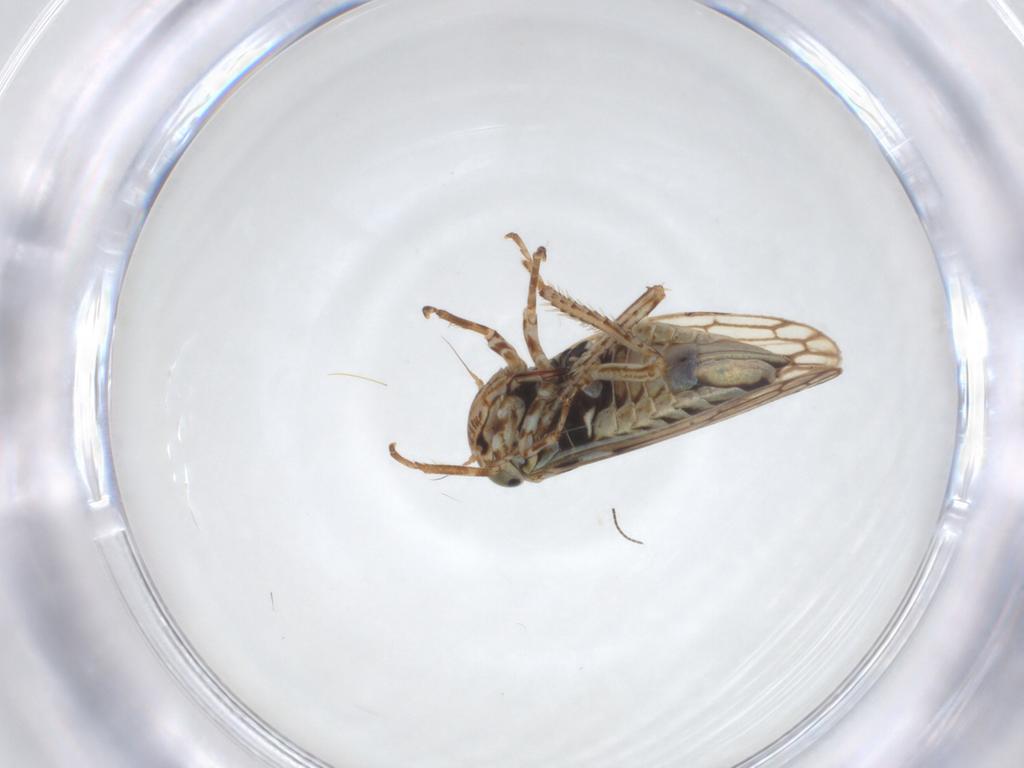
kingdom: Animalia
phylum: Arthropoda
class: Insecta
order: Hemiptera
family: Cicadellidae
